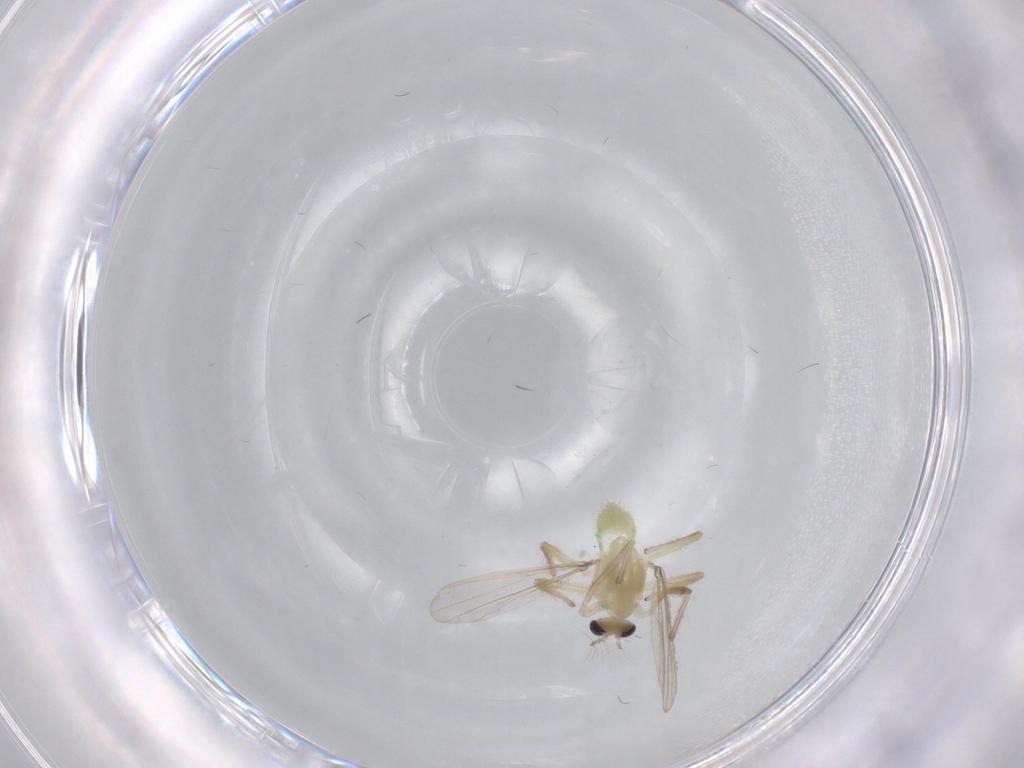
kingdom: Animalia
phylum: Arthropoda
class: Insecta
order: Diptera
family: Chironomidae
